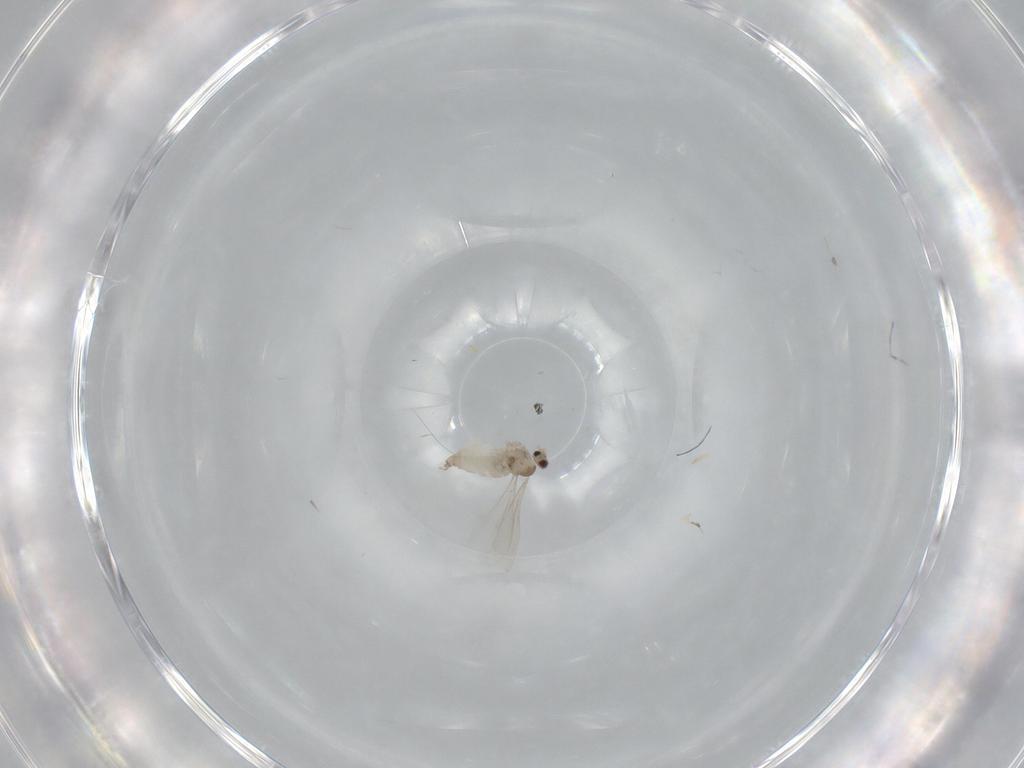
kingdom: Animalia
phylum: Arthropoda
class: Insecta
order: Diptera
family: Cecidomyiidae
